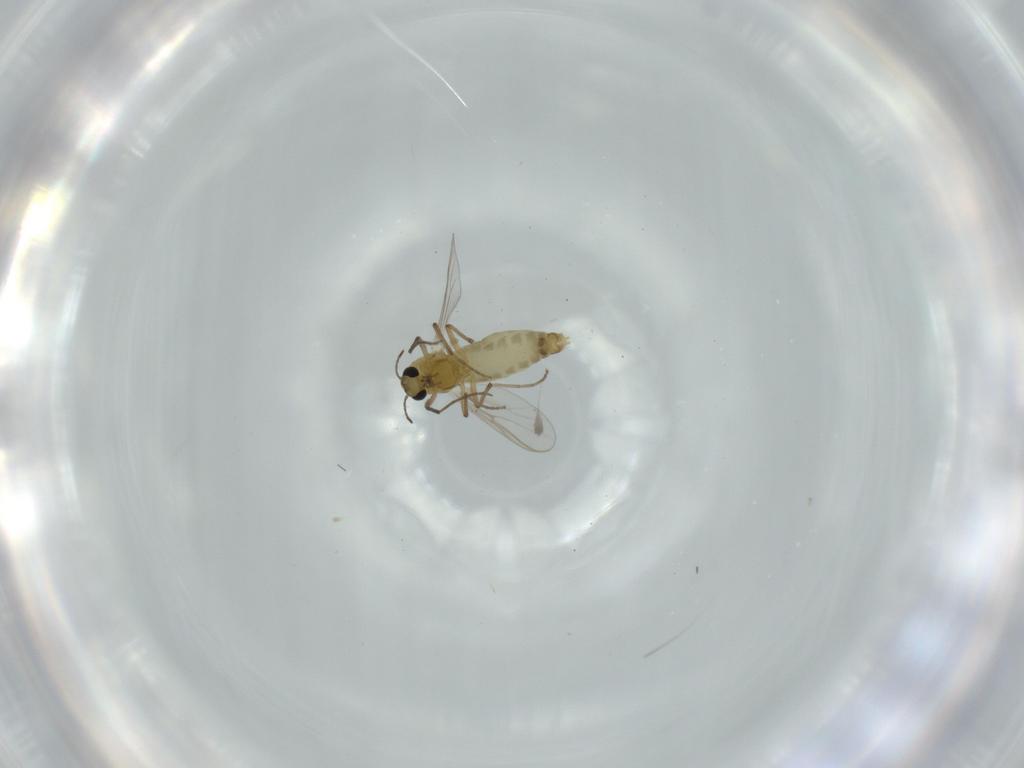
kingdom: Animalia
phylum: Arthropoda
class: Insecta
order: Diptera
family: Chironomidae
